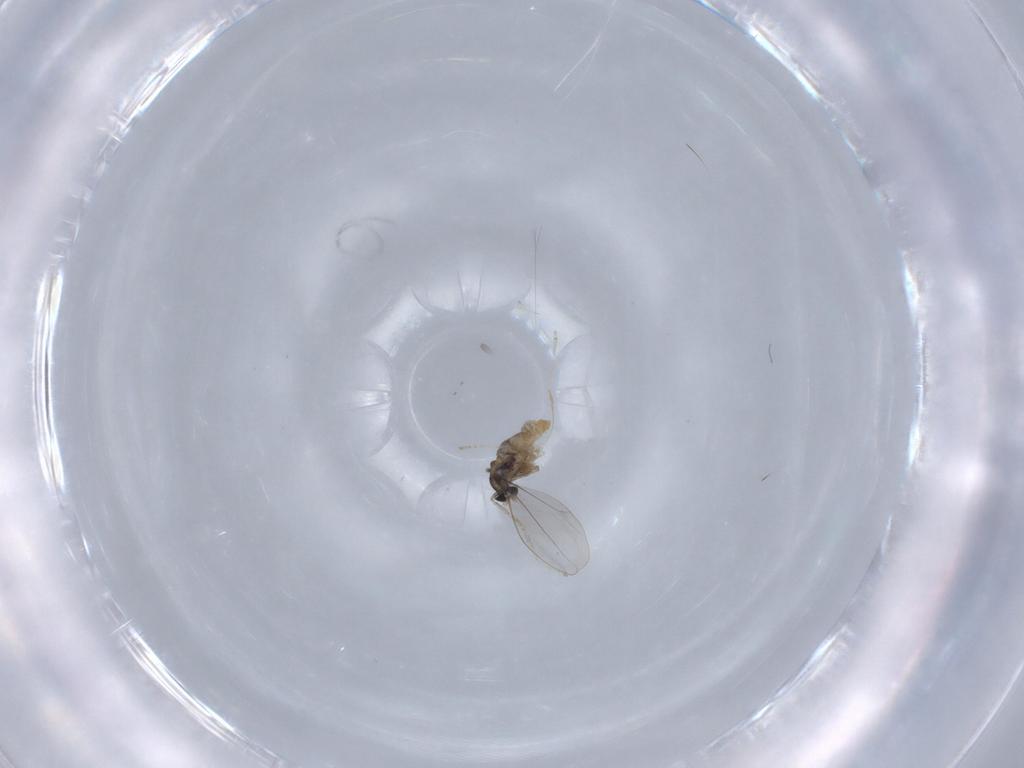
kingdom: Animalia
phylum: Arthropoda
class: Insecta
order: Diptera
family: Cecidomyiidae
